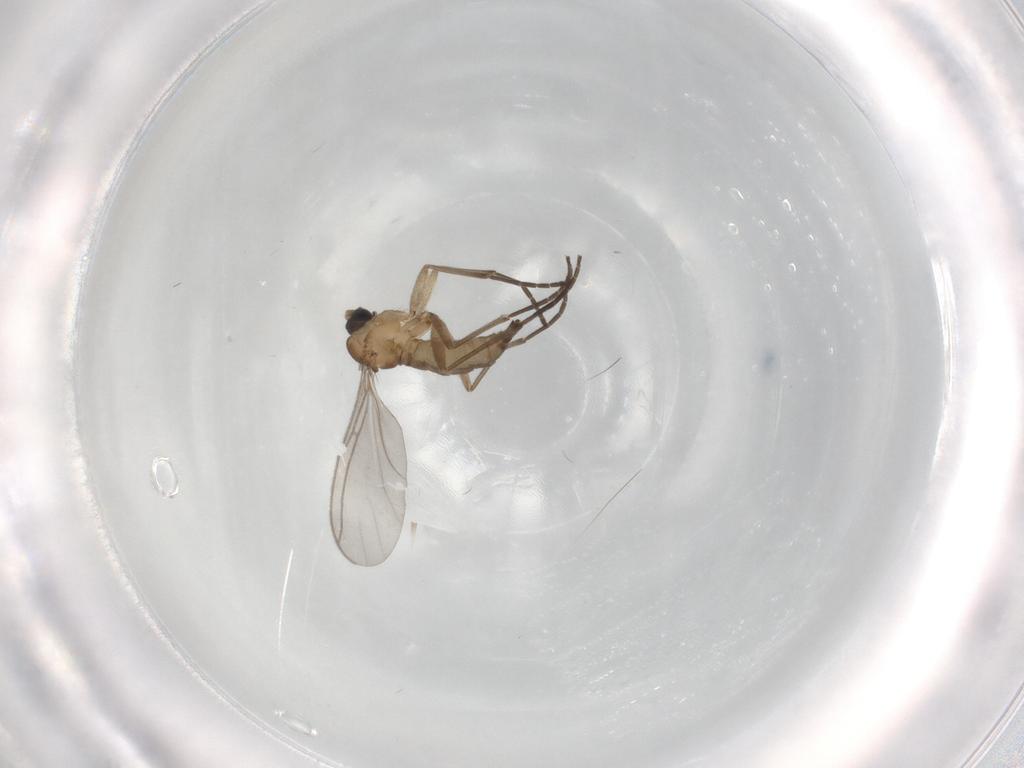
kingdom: Animalia
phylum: Arthropoda
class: Insecta
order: Diptera
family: Sciaridae
